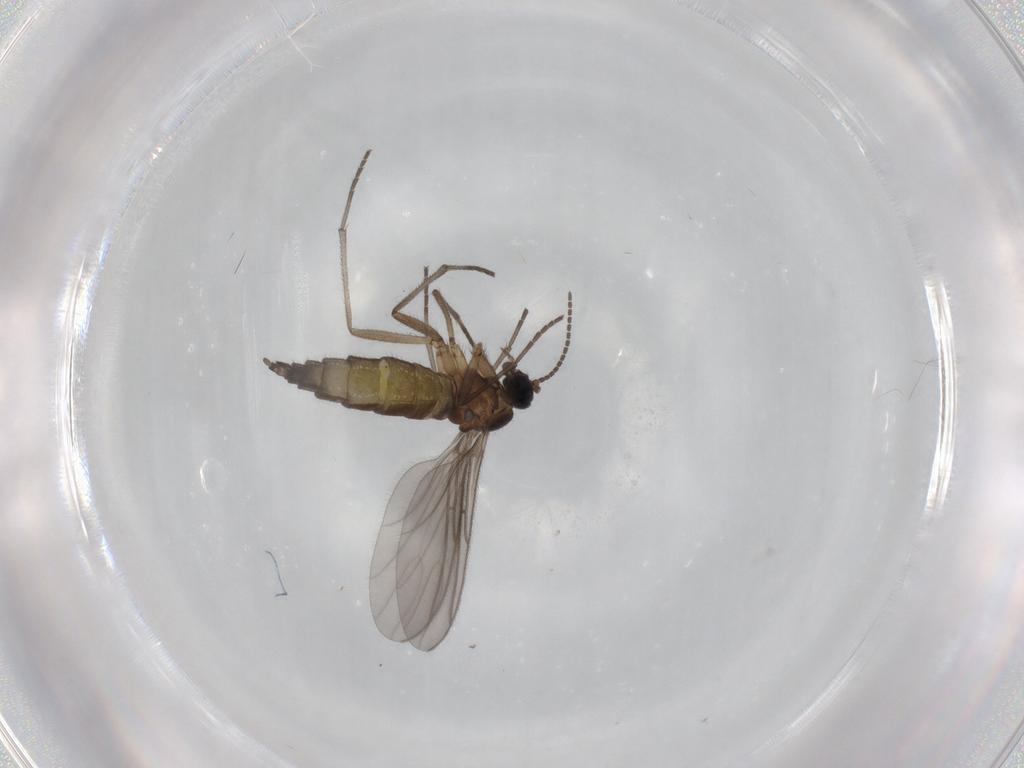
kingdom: Animalia
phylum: Arthropoda
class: Insecta
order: Diptera
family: Sciaridae
